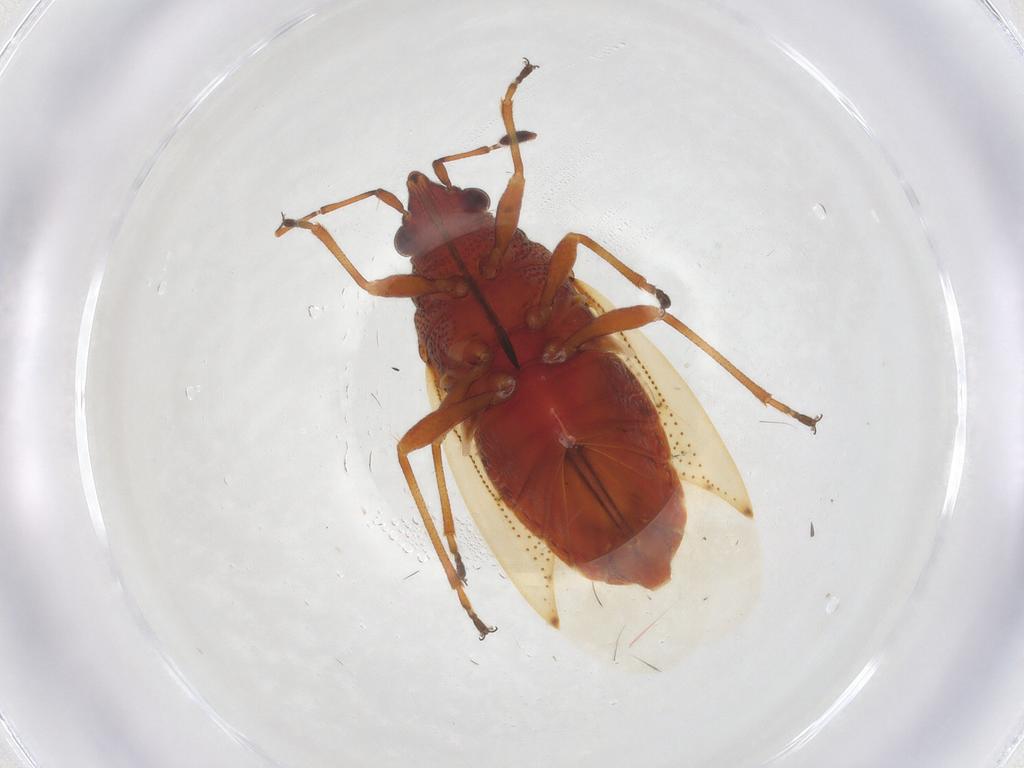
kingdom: Animalia
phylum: Arthropoda
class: Insecta
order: Hemiptera
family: Lygaeidae
